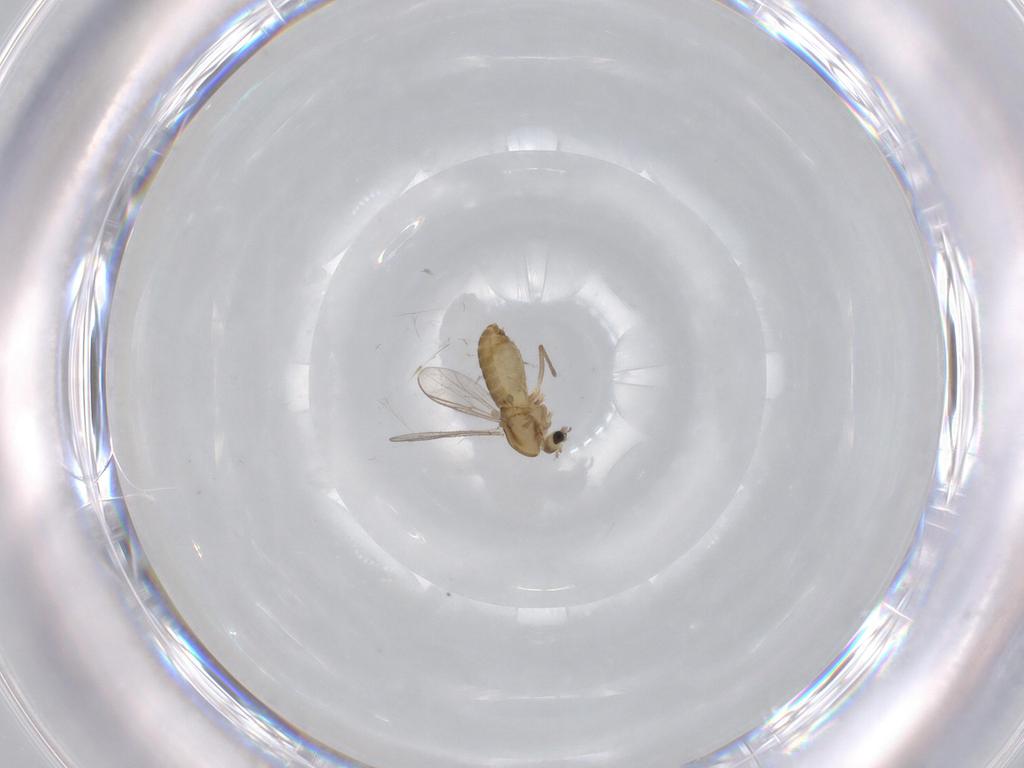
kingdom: Animalia
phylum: Arthropoda
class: Insecta
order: Diptera
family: Chironomidae
